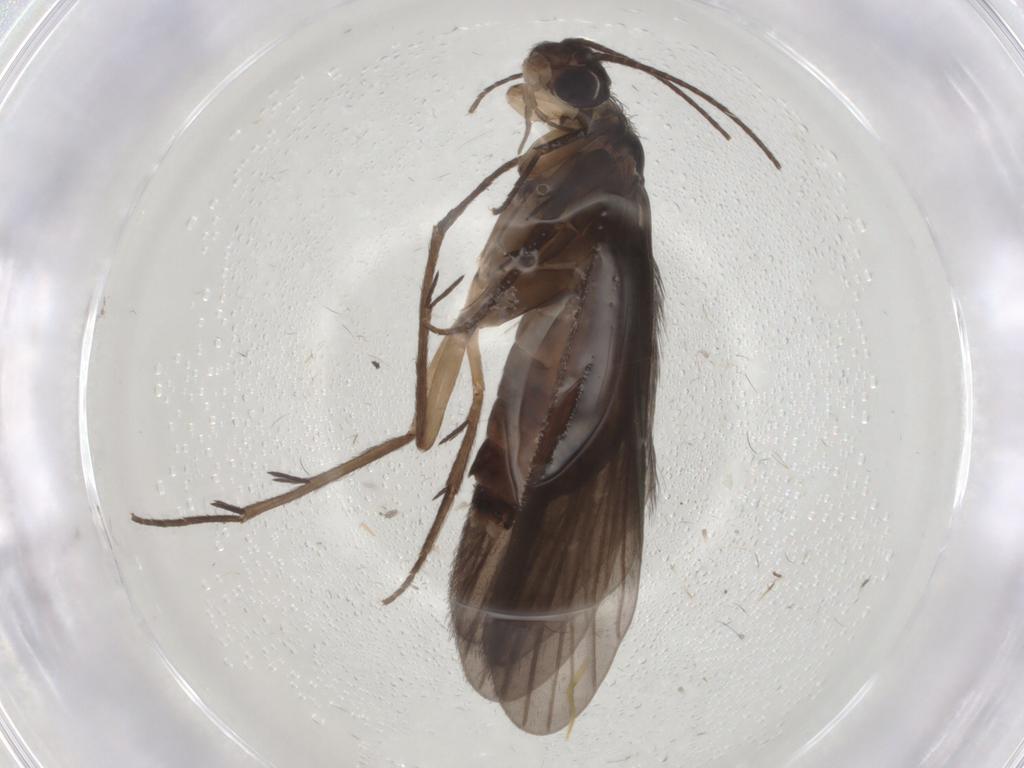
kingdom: Animalia
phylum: Arthropoda
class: Insecta
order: Trichoptera
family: Philopotamidae
